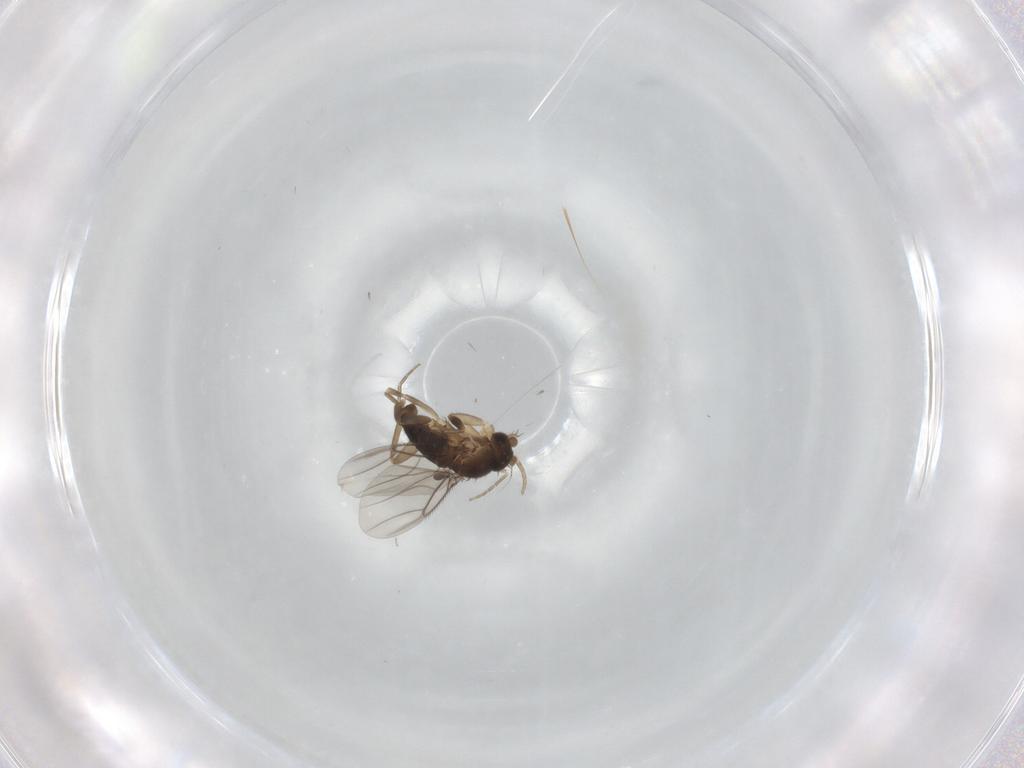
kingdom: Animalia
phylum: Arthropoda
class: Insecta
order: Diptera
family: Phoridae
